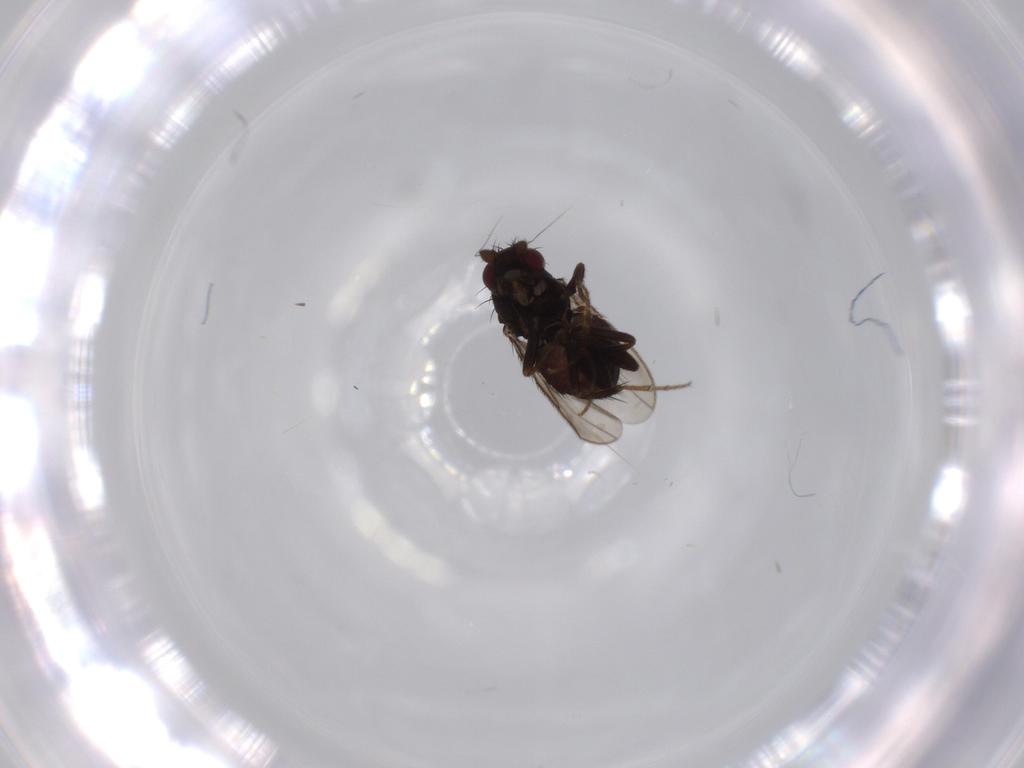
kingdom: Animalia
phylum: Arthropoda
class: Insecta
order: Diptera
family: Sphaeroceridae
